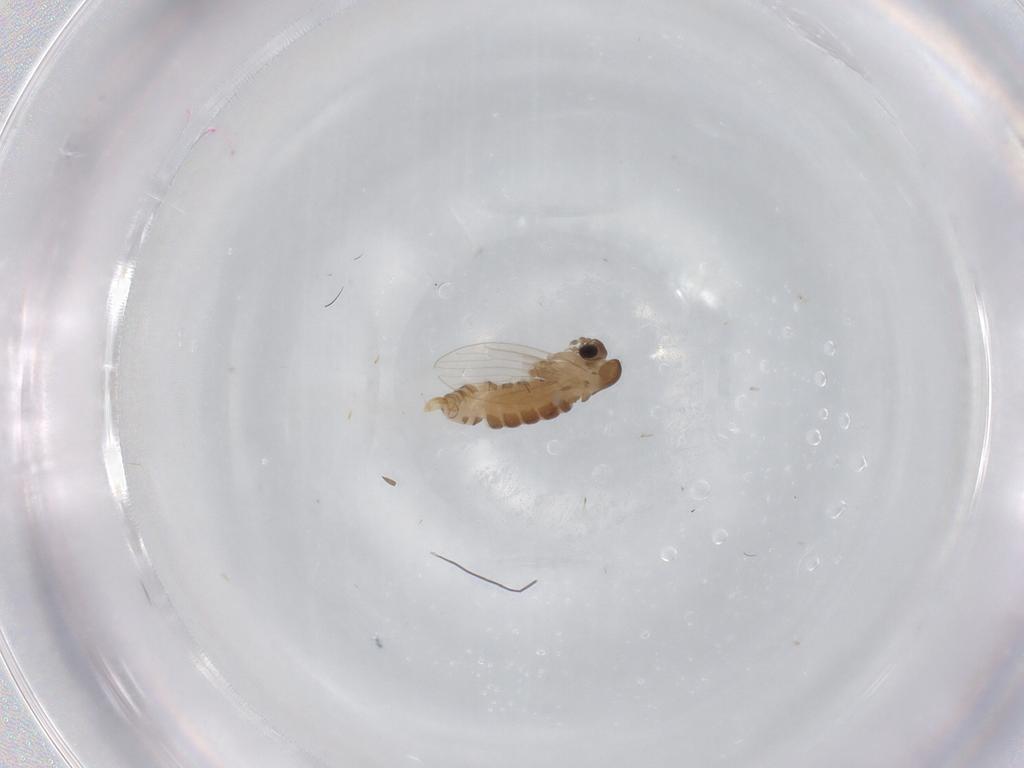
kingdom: Animalia
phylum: Arthropoda
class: Insecta
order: Diptera
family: Psychodidae
